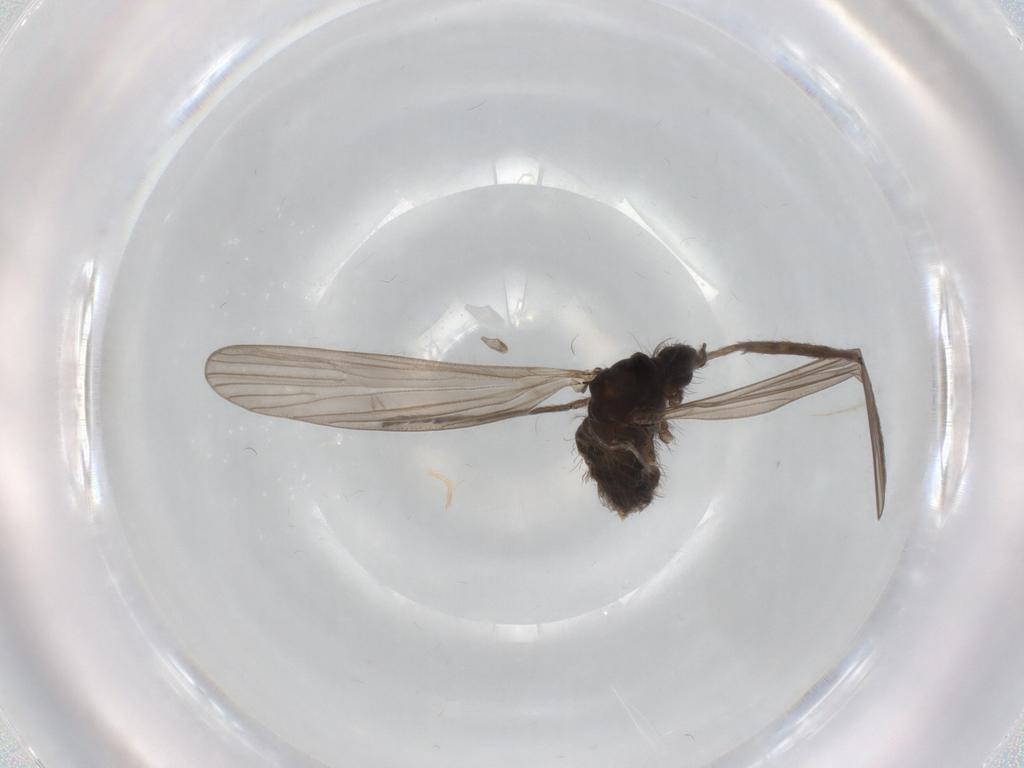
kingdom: Animalia
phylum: Arthropoda
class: Insecta
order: Diptera
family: Limoniidae
